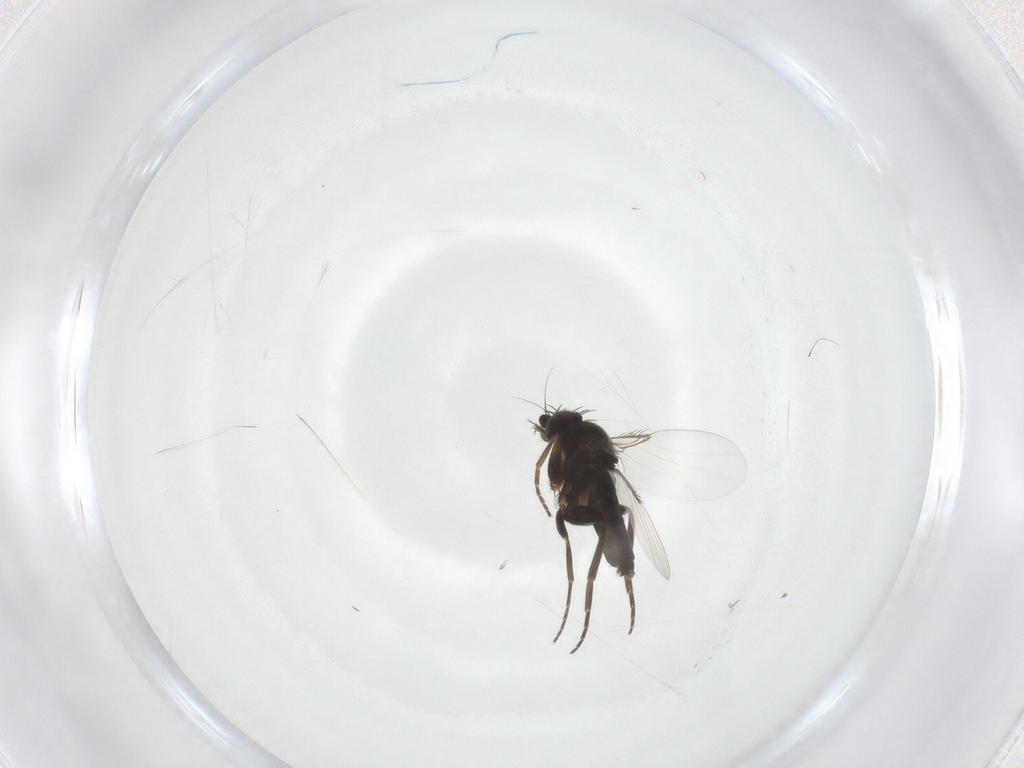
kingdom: Animalia
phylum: Arthropoda
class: Insecta
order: Diptera
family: Phoridae
